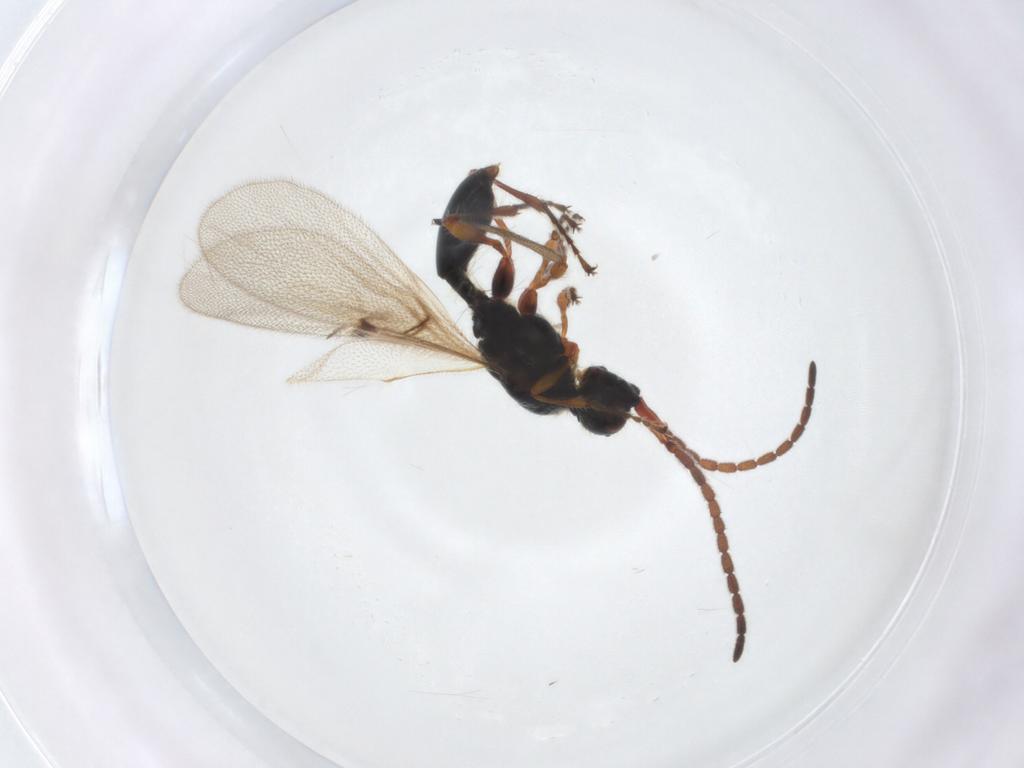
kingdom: Animalia
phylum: Arthropoda
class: Insecta
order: Hymenoptera
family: Diapriidae
